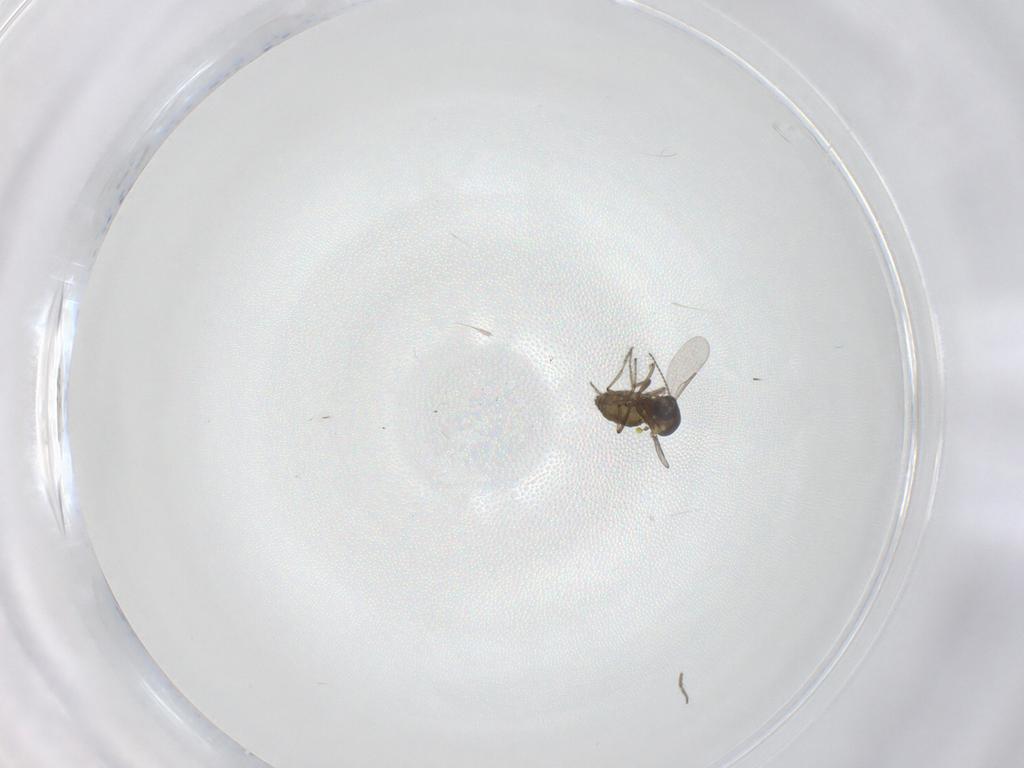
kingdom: Animalia
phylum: Arthropoda
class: Insecta
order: Diptera
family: Ceratopogonidae
